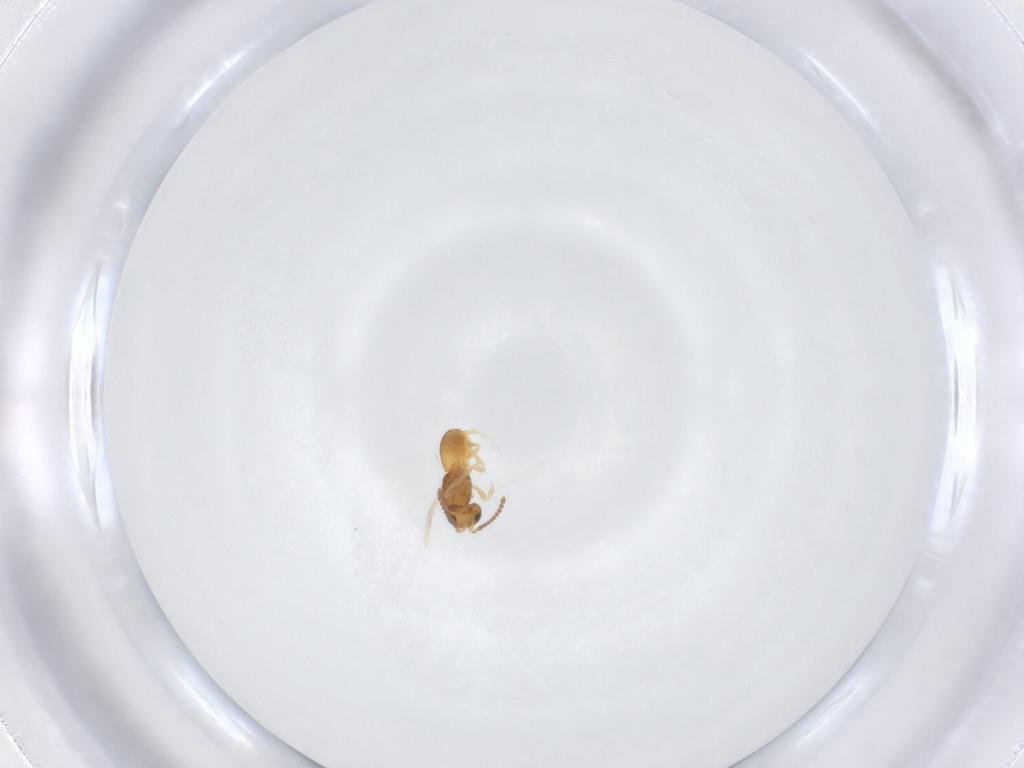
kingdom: Animalia
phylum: Arthropoda
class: Insecta
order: Hymenoptera
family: Scelionidae
